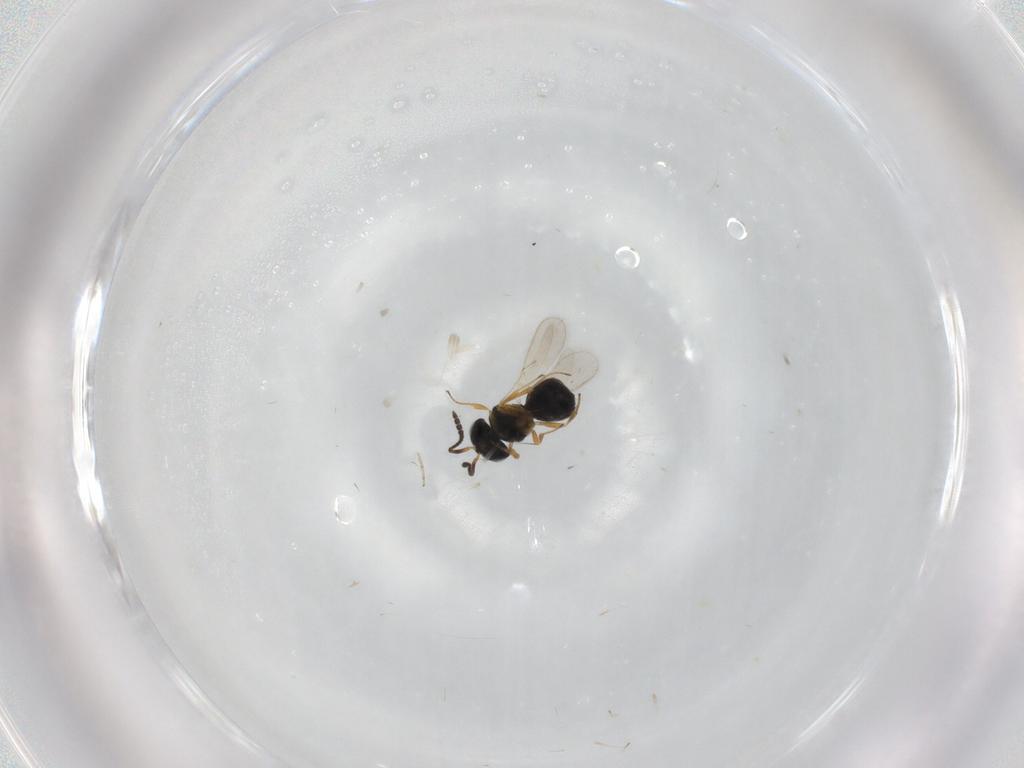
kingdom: Animalia
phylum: Arthropoda
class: Insecta
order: Hymenoptera
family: Scelionidae
